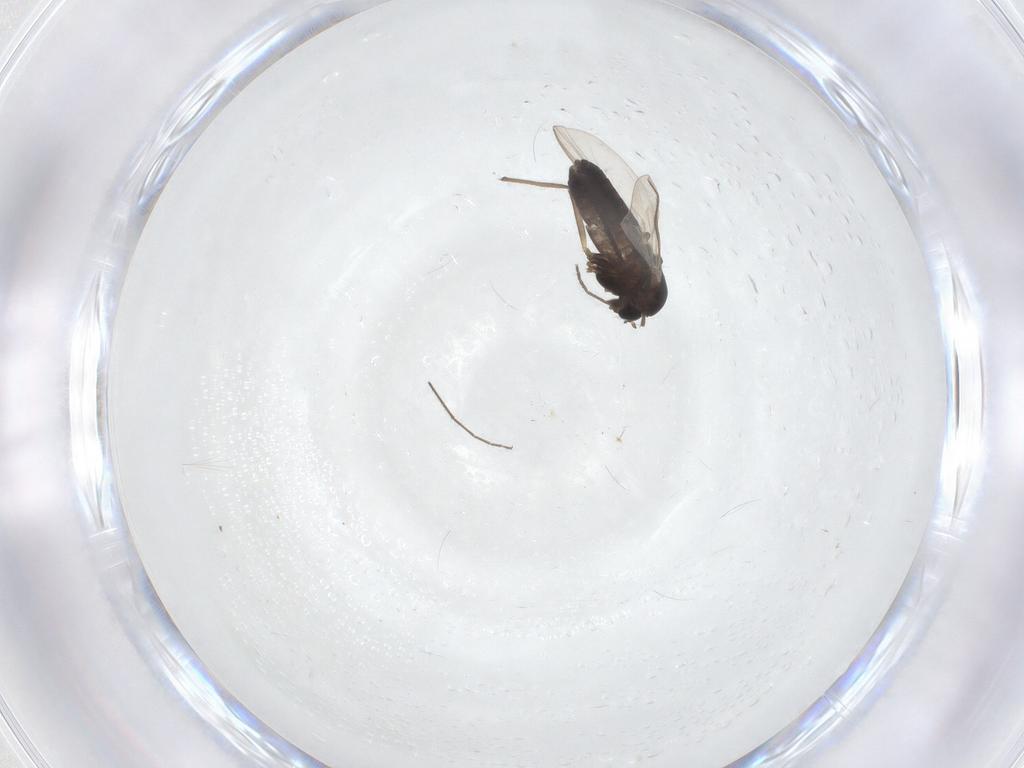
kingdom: Animalia
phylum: Arthropoda
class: Insecta
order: Diptera
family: Chironomidae
